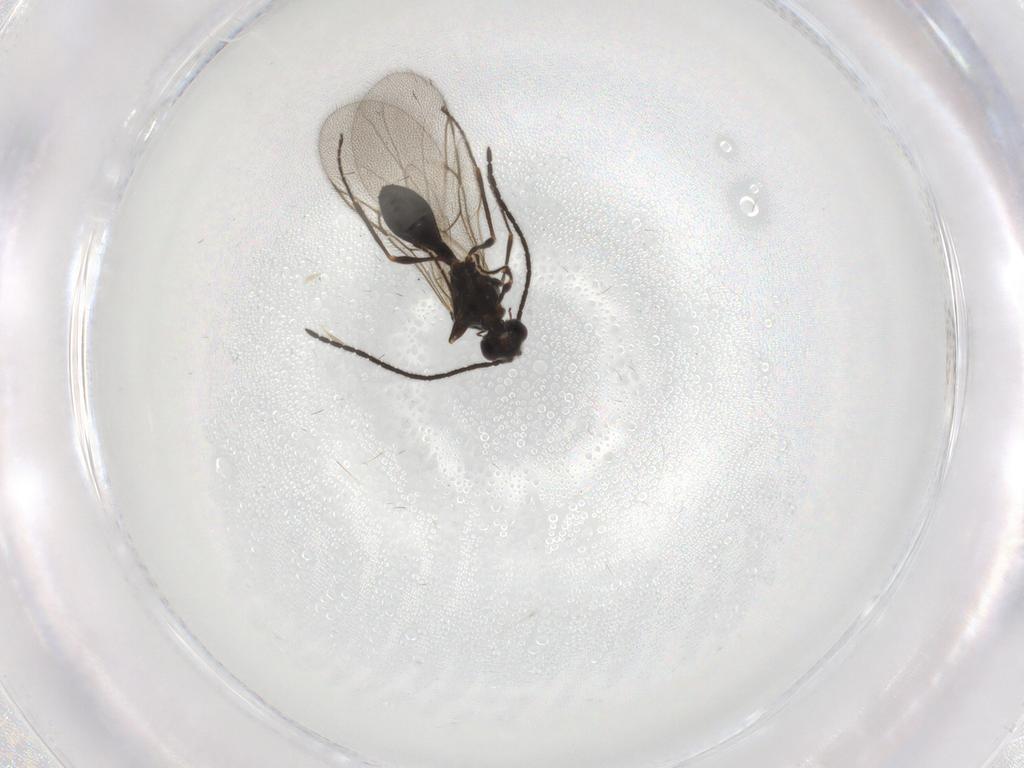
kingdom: Animalia
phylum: Arthropoda
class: Insecta
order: Hymenoptera
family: Diapriidae
